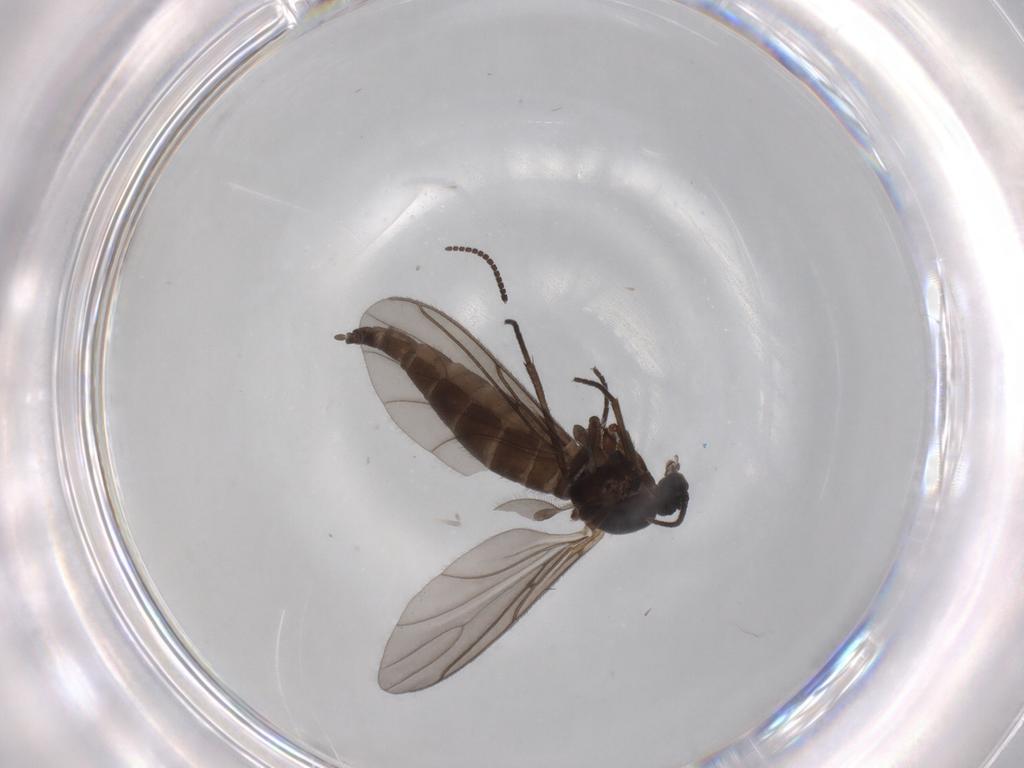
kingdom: Animalia
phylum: Arthropoda
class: Insecta
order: Diptera
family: Sciaridae
